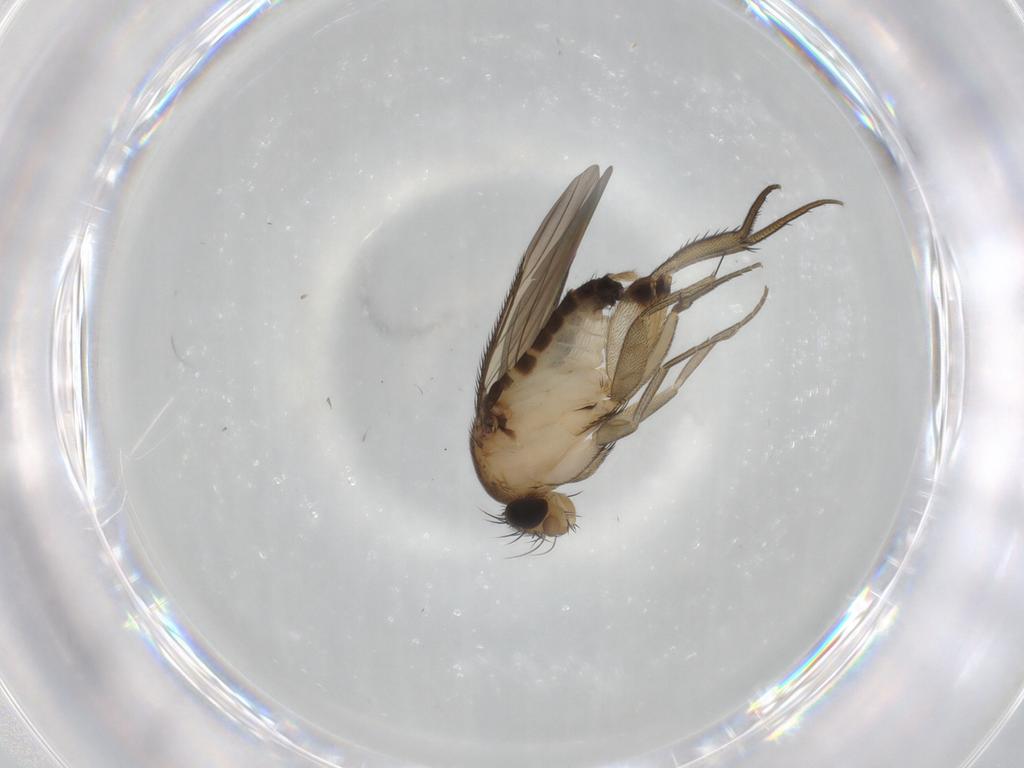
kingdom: Animalia
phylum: Arthropoda
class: Insecta
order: Diptera
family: Phoridae
